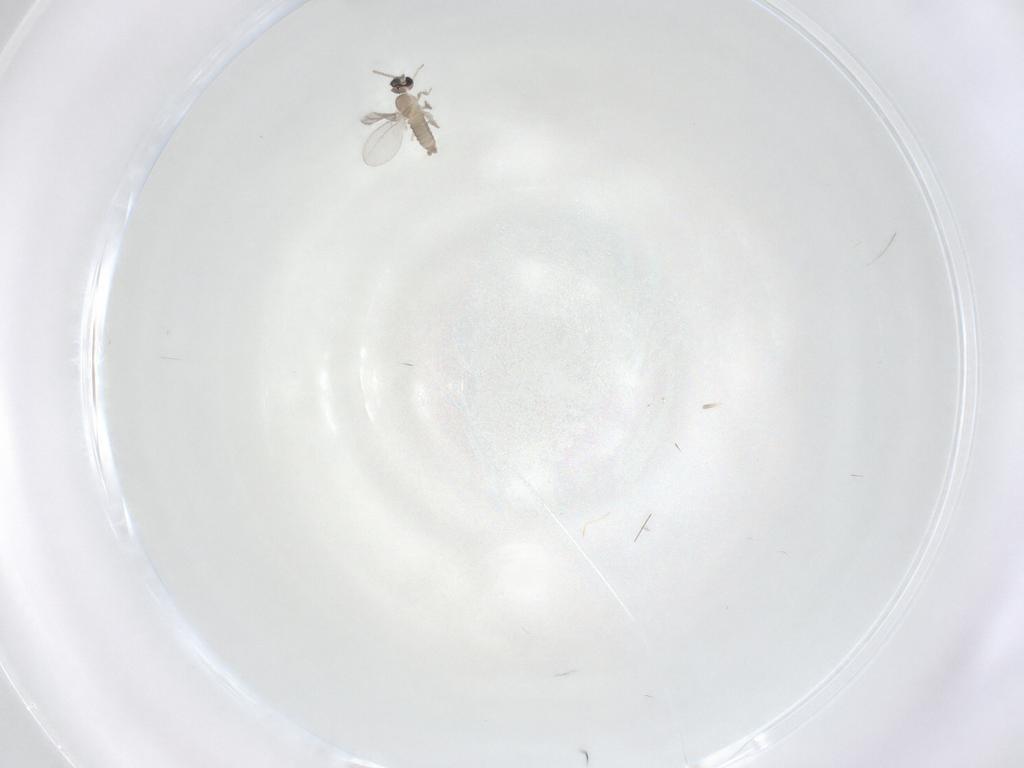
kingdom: Animalia
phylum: Arthropoda
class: Insecta
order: Diptera
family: Cecidomyiidae
